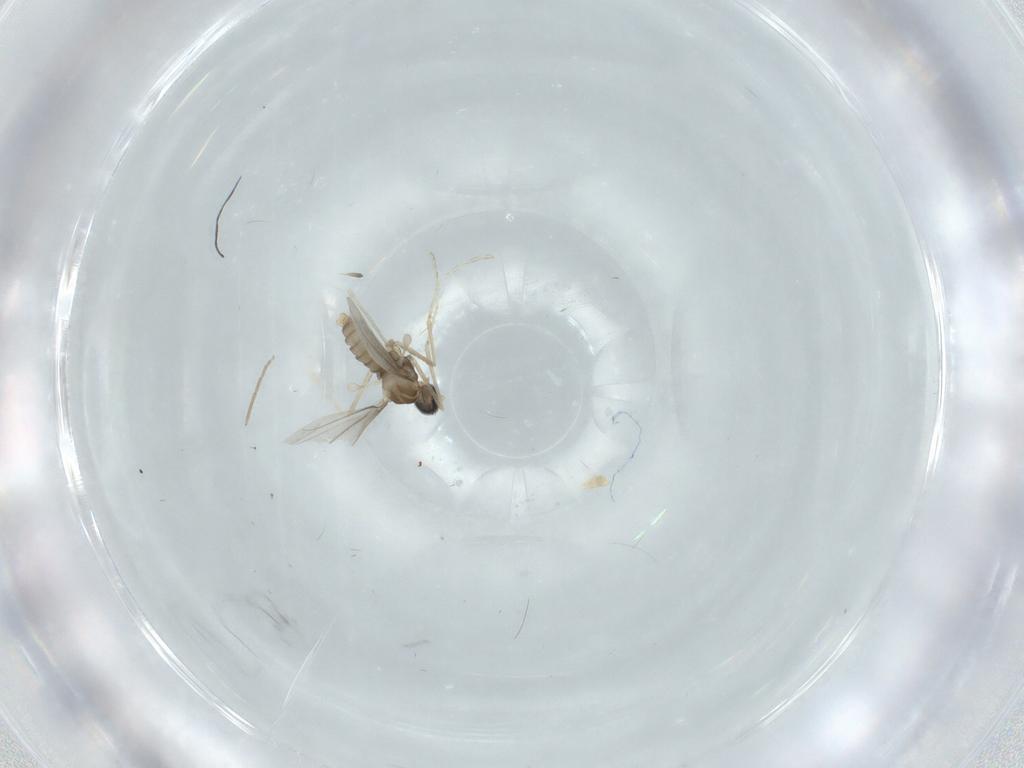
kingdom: Animalia
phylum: Arthropoda
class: Insecta
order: Diptera
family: Cecidomyiidae
